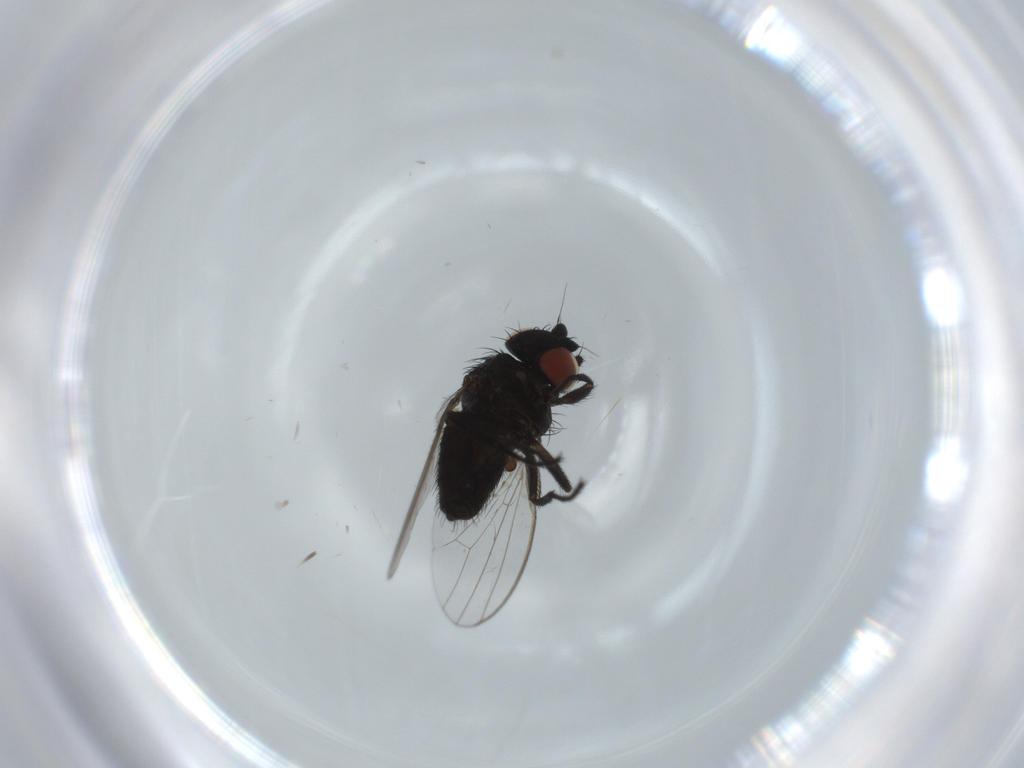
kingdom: Animalia
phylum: Arthropoda
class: Insecta
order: Diptera
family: Milichiidae
